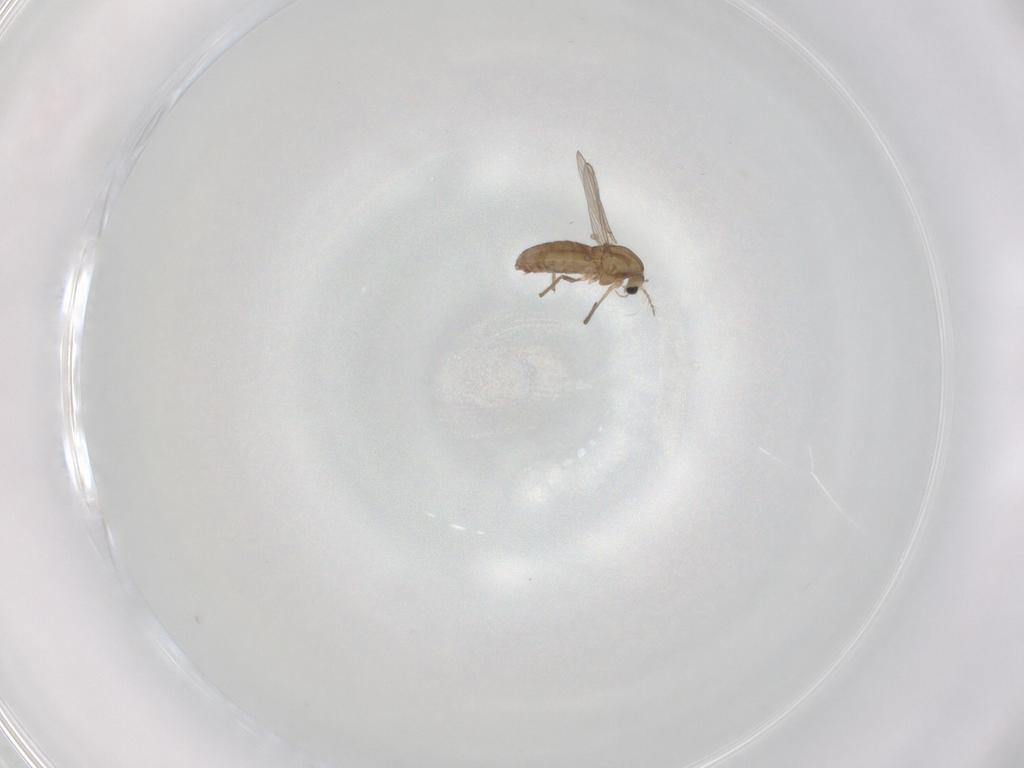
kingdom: Animalia
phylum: Arthropoda
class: Insecta
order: Diptera
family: Chironomidae
